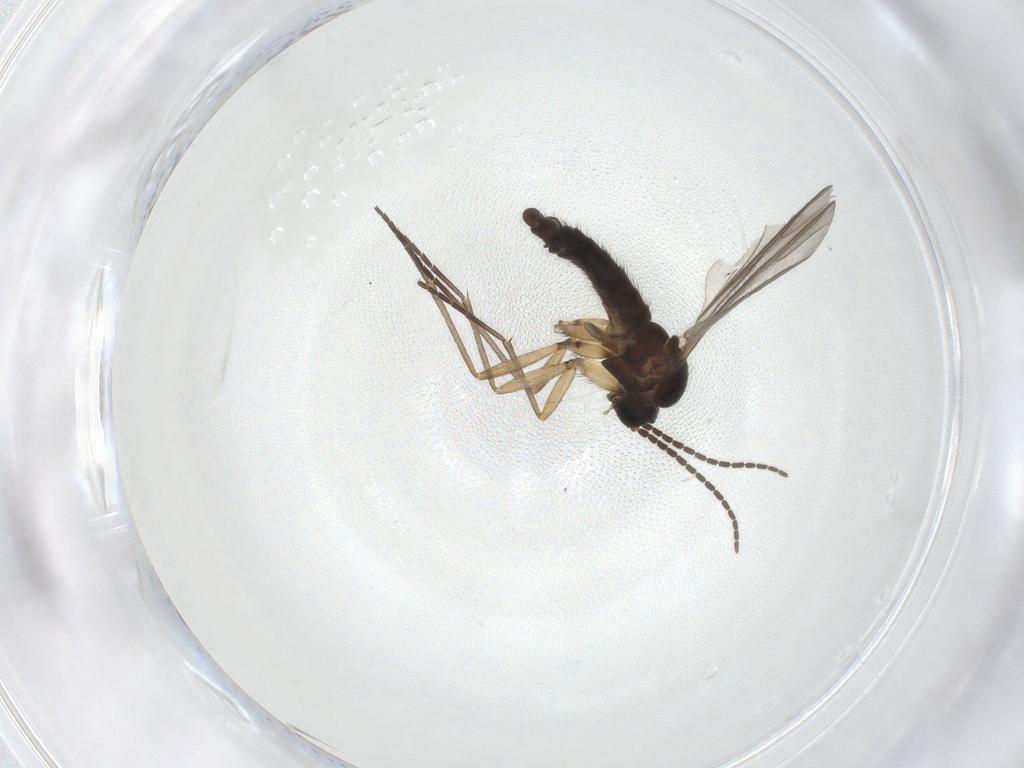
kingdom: Animalia
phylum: Arthropoda
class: Insecta
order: Diptera
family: Sciaridae
